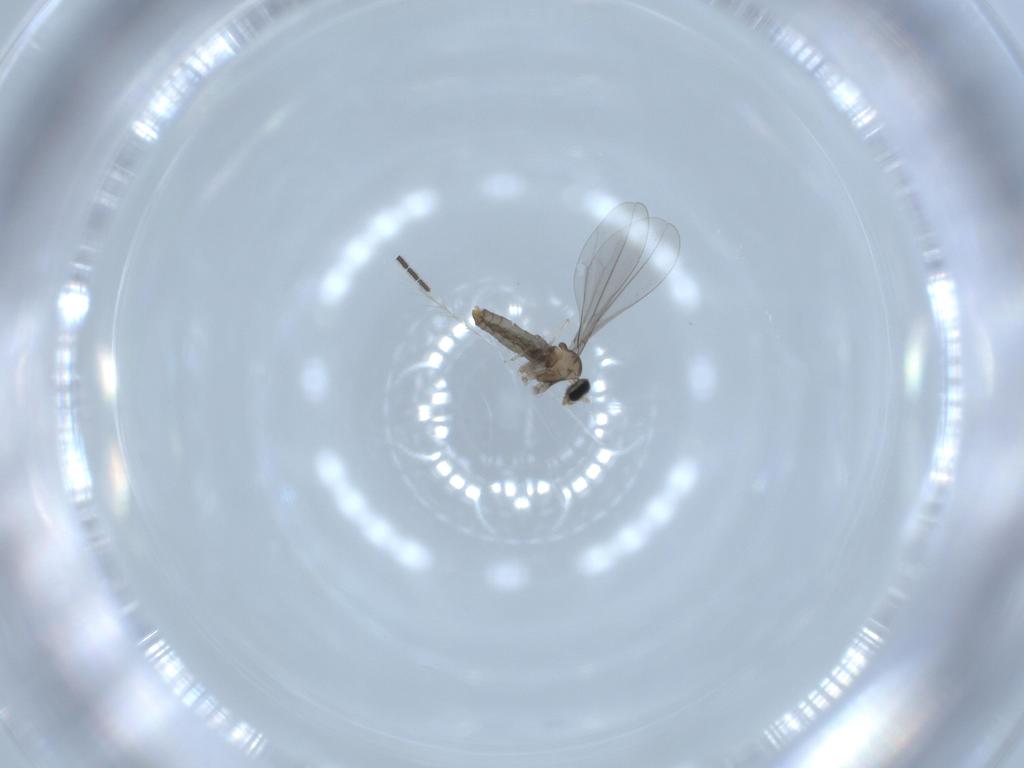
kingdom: Animalia
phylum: Arthropoda
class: Insecta
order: Diptera
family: Cecidomyiidae
